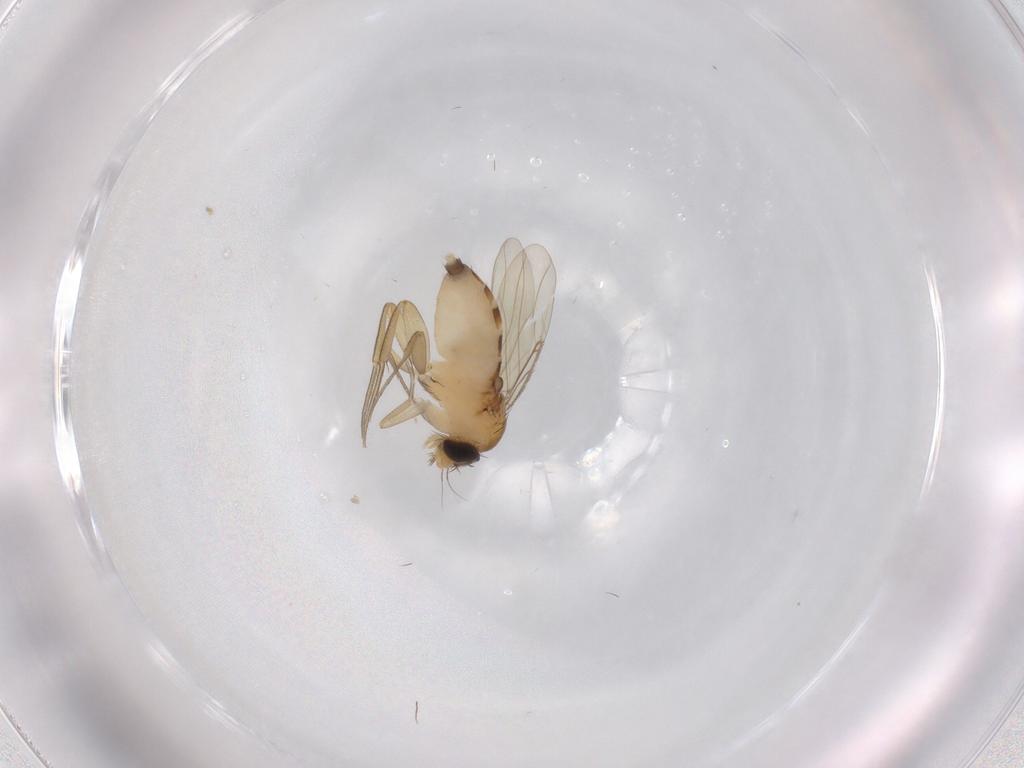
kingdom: Animalia
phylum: Arthropoda
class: Insecta
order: Diptera
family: Phoridae
